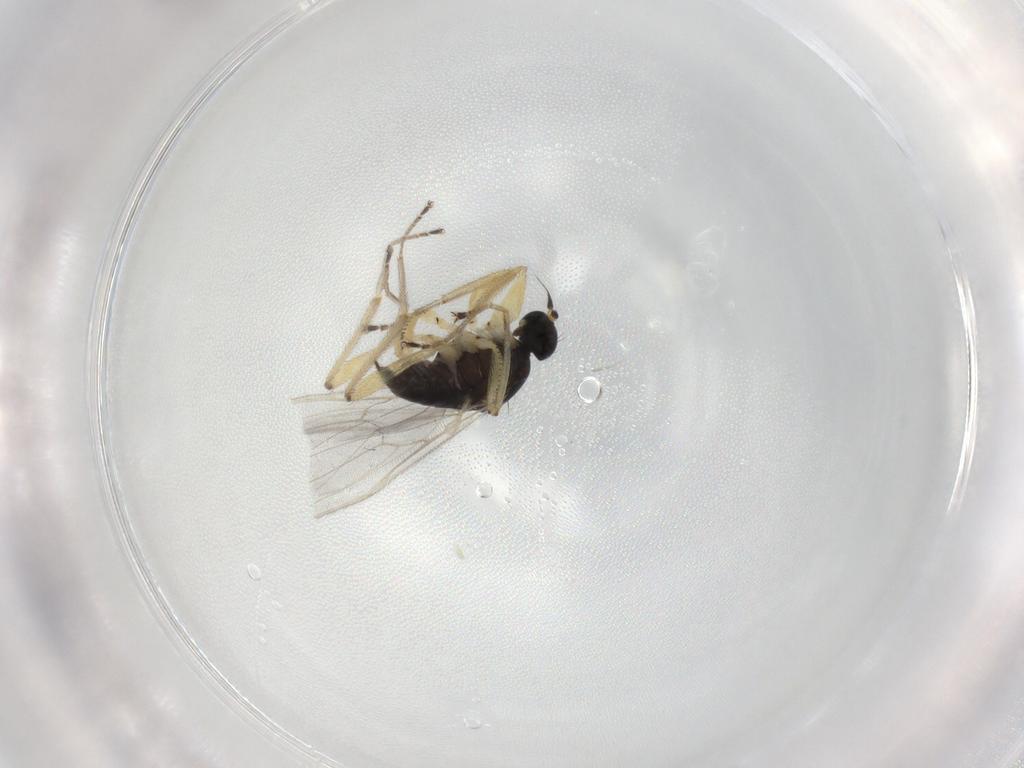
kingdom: Animalia
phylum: Arthropoda
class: Insecta
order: Diptera
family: Hybotidae
